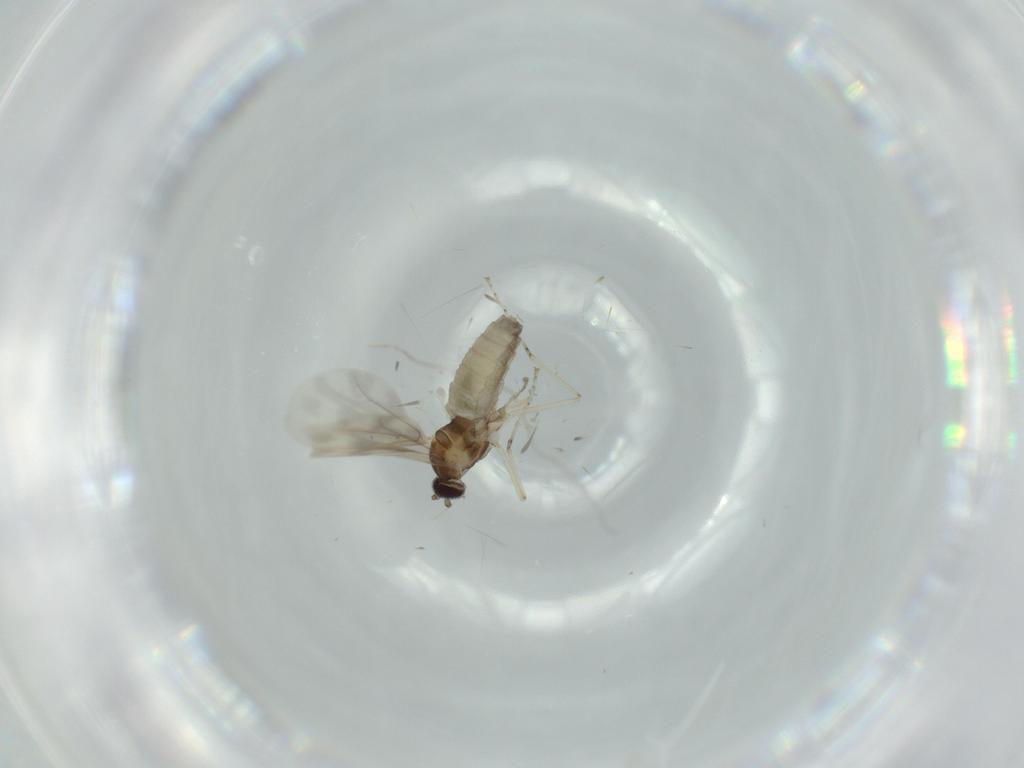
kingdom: Animalia
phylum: Arthropoda
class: Insecta
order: Diptera
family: Cecidomyiidae
